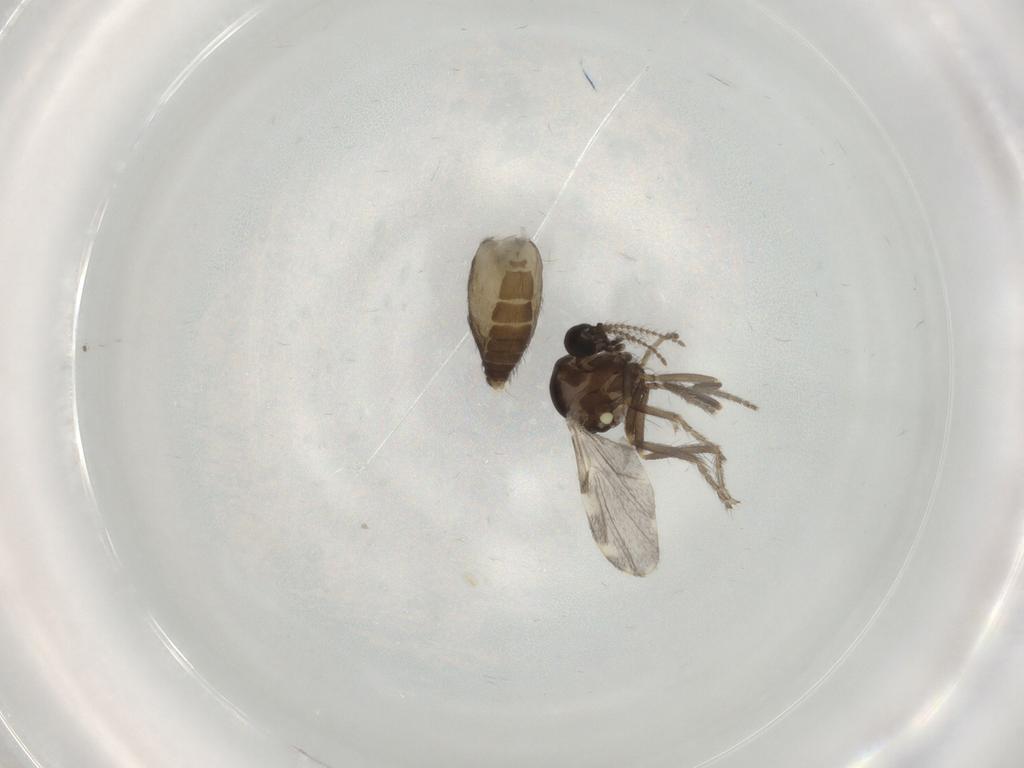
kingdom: Animalia
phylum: Arthropoda
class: Insecta
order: Diptera
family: Ceratopogonidae
